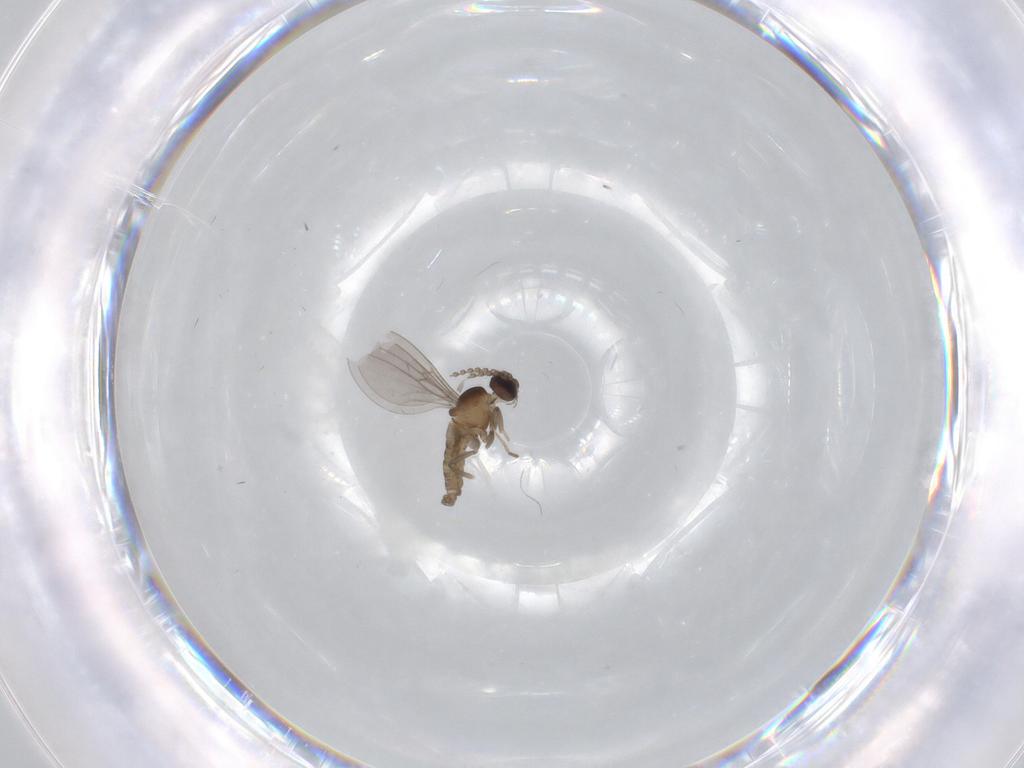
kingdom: Animalia
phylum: Arthropoda
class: Insecta
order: Diptera
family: Cecidomyiidae
